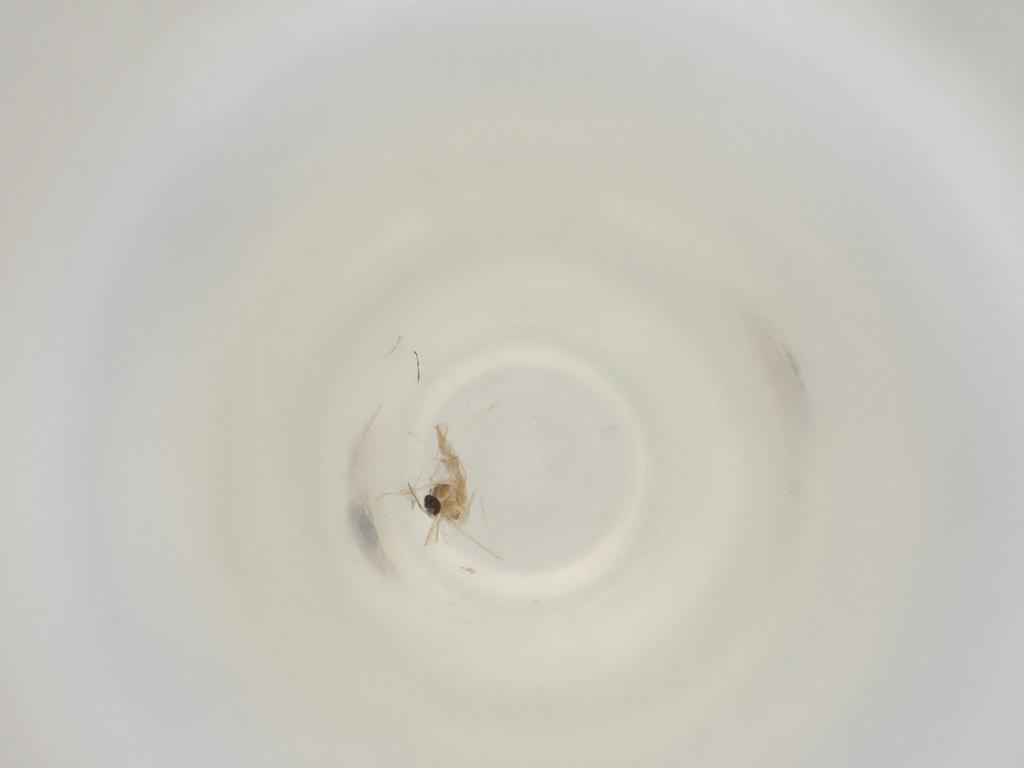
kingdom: Animalia
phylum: Arthropoda
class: Insecta
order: Diptera
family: Cecidomyiidae
